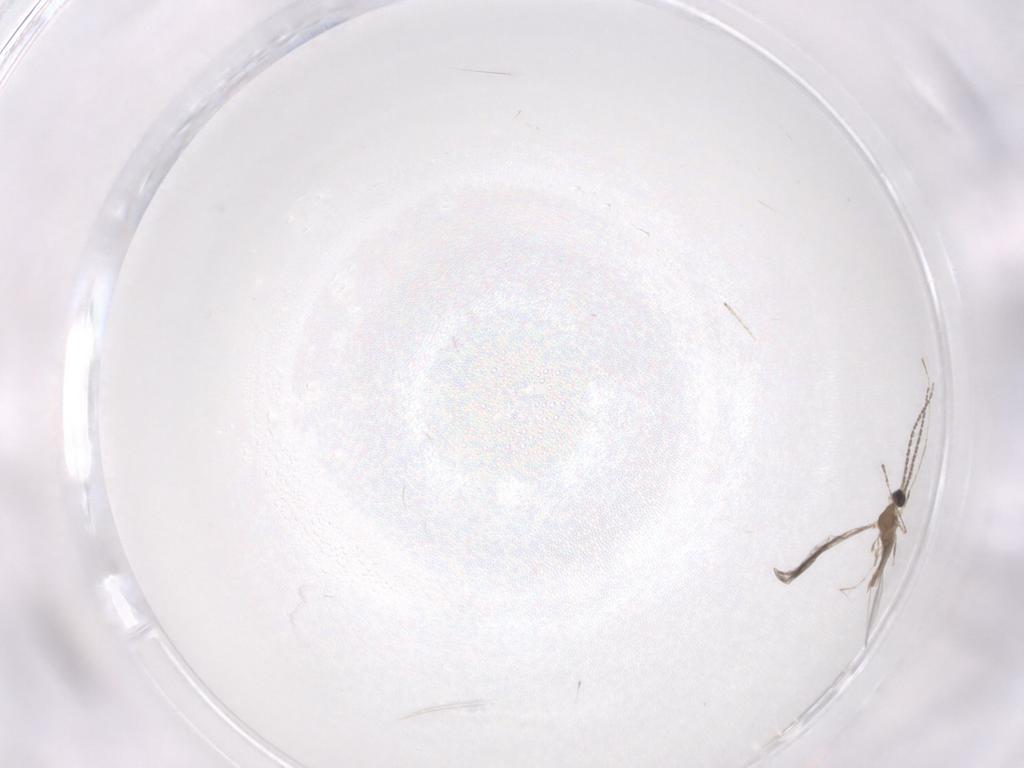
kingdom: Animalia
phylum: Arthropoda
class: Insecta
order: Diptera
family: Cecidomyiidae
